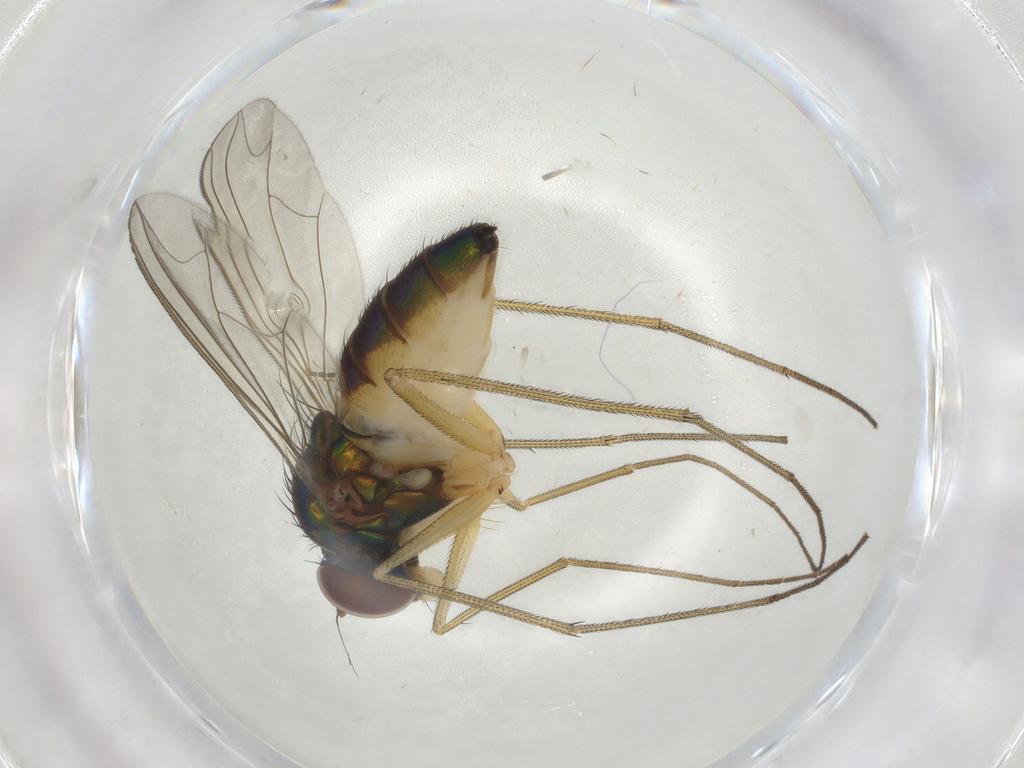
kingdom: Animalia
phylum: Arthropoda
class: Insecta
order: Diptera
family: Dolichopodidae
